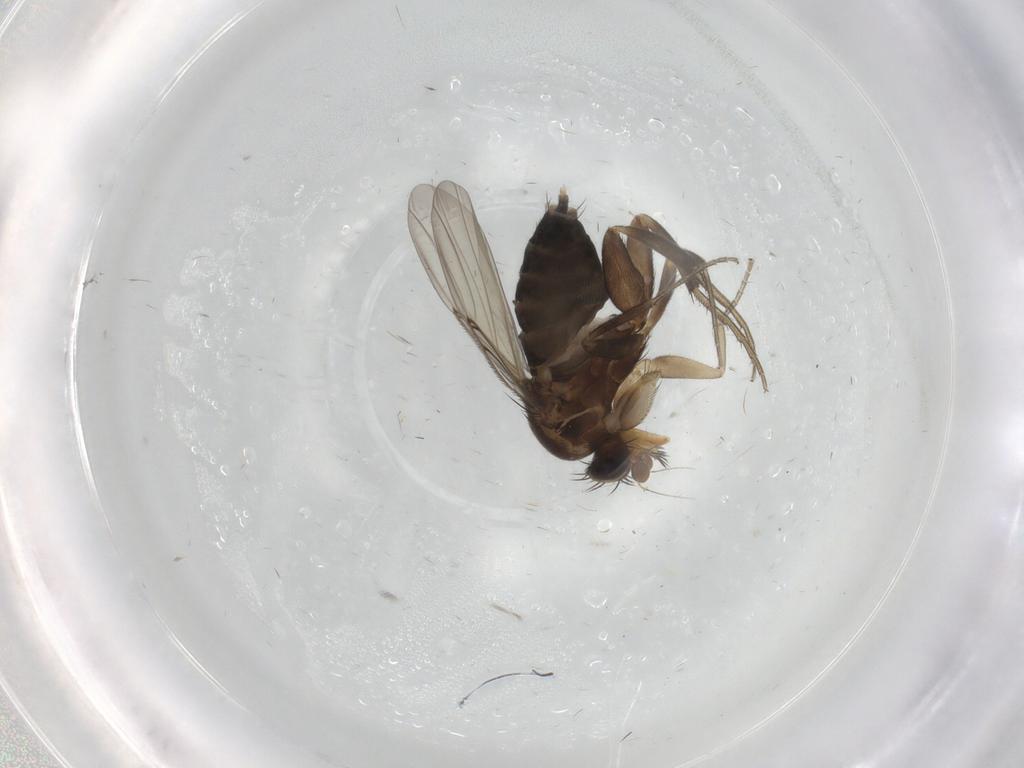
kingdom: Animalia
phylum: Arthropoda
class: Insecta
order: Diptera
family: Phoridae
